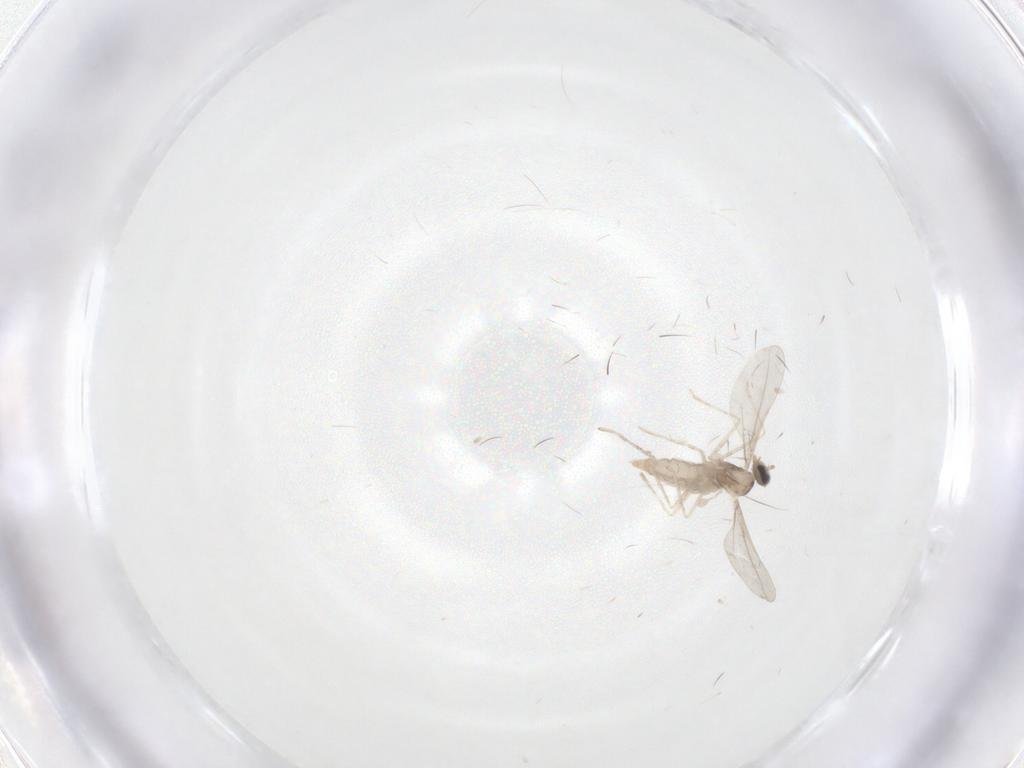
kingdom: Animalia
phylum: Arthropoda
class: Insecta
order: Diptera
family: Cecidomyiidae
